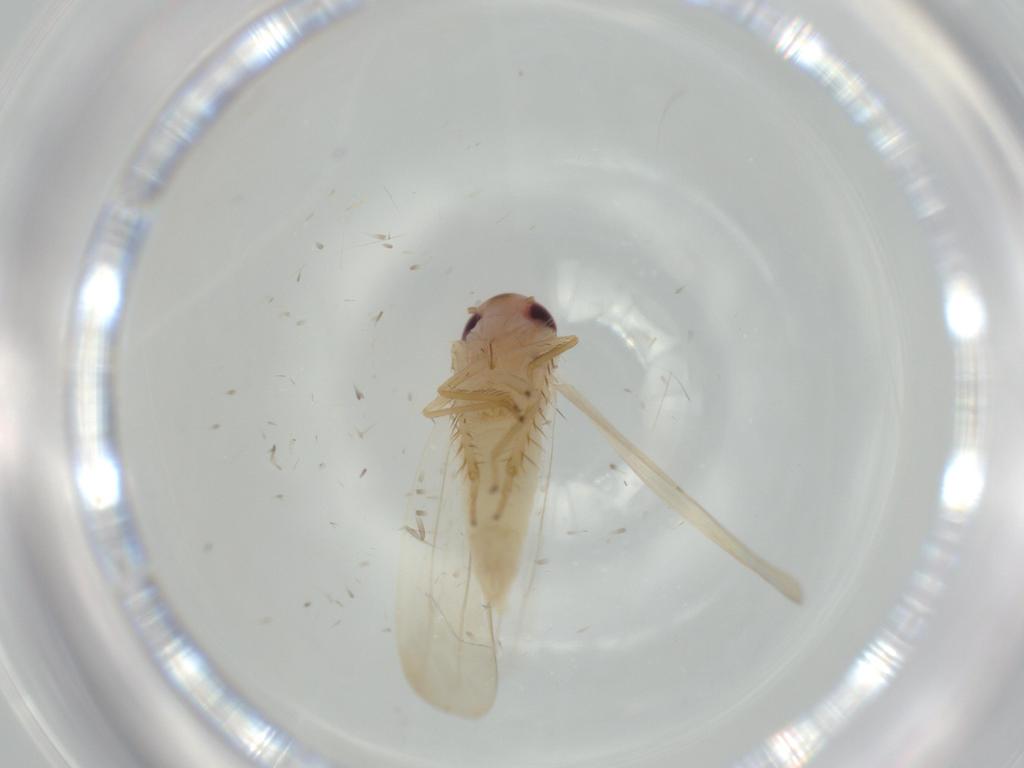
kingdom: Animalia
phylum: Arthropoda
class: Insecta
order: Hemiptera
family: Cicadellidae
